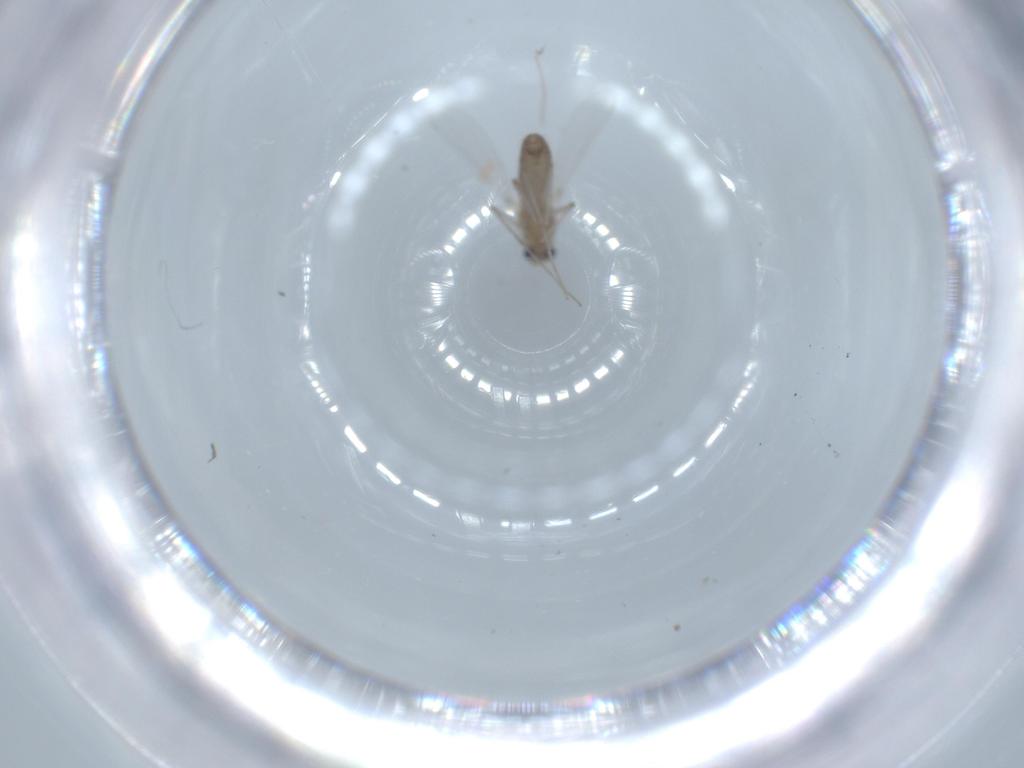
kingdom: Animalia
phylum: Arthropoda
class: Insecta
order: Diptera
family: Chironomidae
